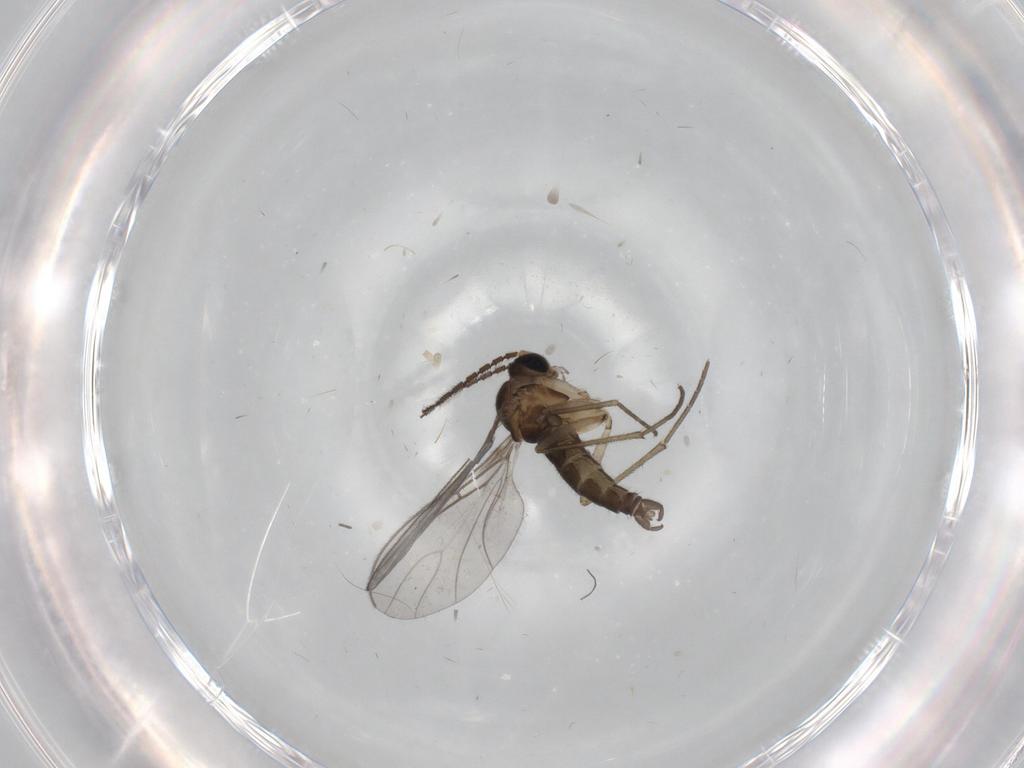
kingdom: Animalia
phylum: Arthropoda
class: Insecta
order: Diptera
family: Sciaridae
